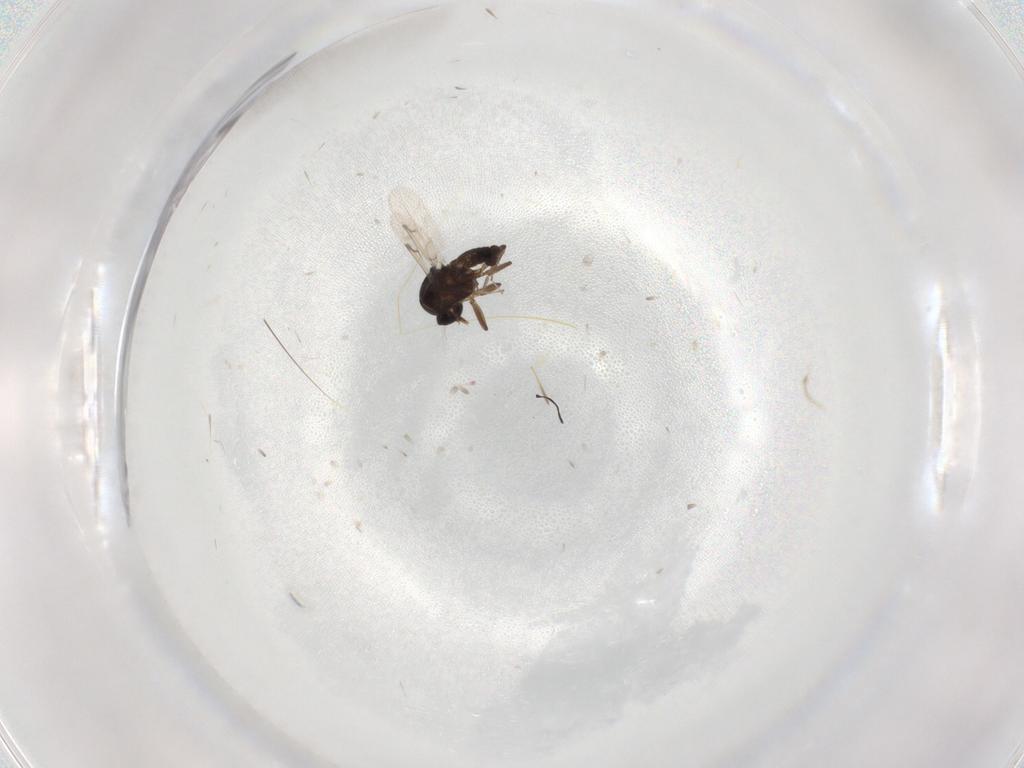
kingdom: Animalia
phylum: Arthropoda
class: Insecta
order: Diptera
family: Ceratopogonidae
